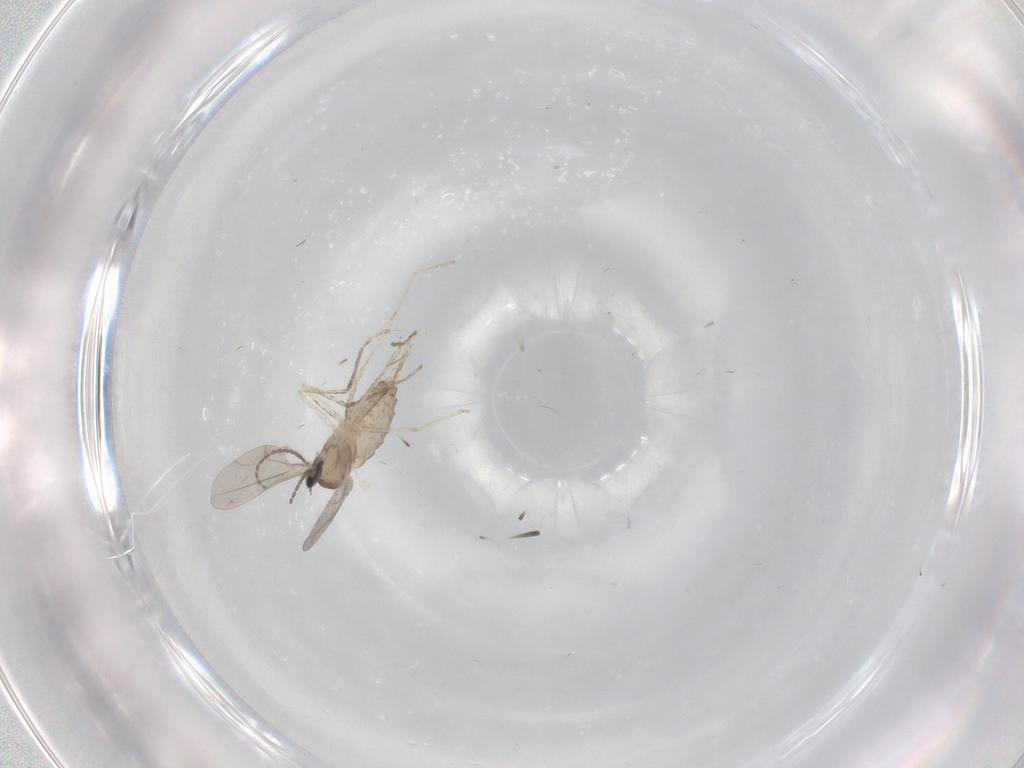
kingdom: Animalia
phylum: Arthropoda
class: Insecta
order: Diptera
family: Cecidomyiidae
